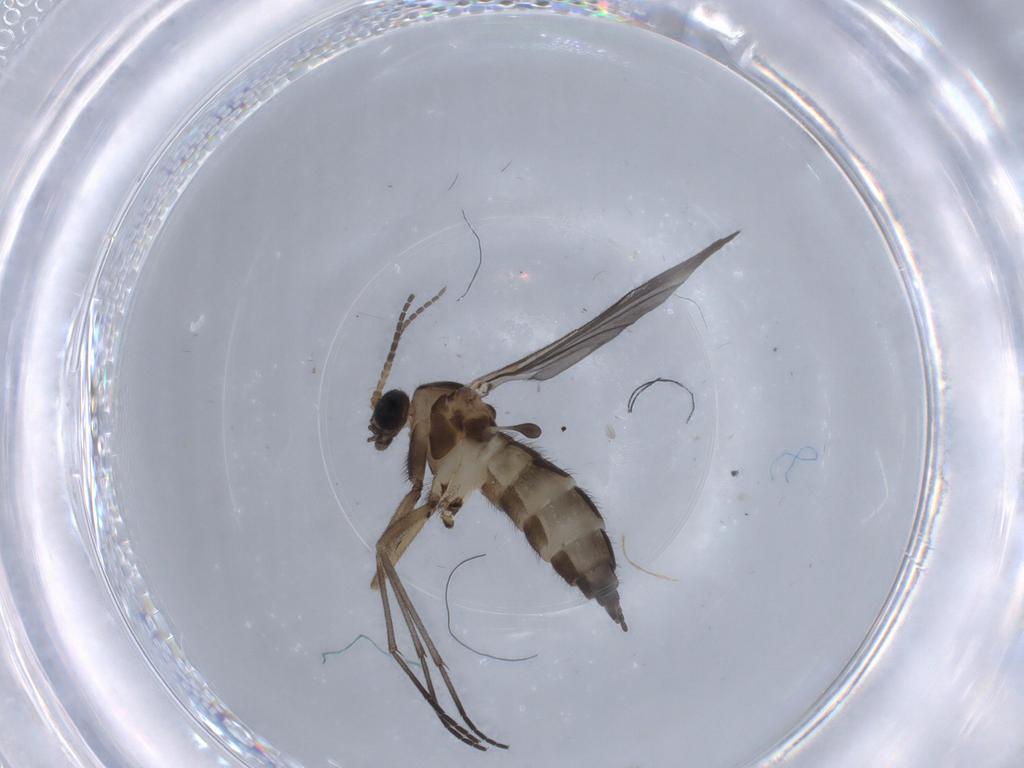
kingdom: Animalia
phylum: Arthropoda
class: Insecta
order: Diptera
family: Sciaridae
